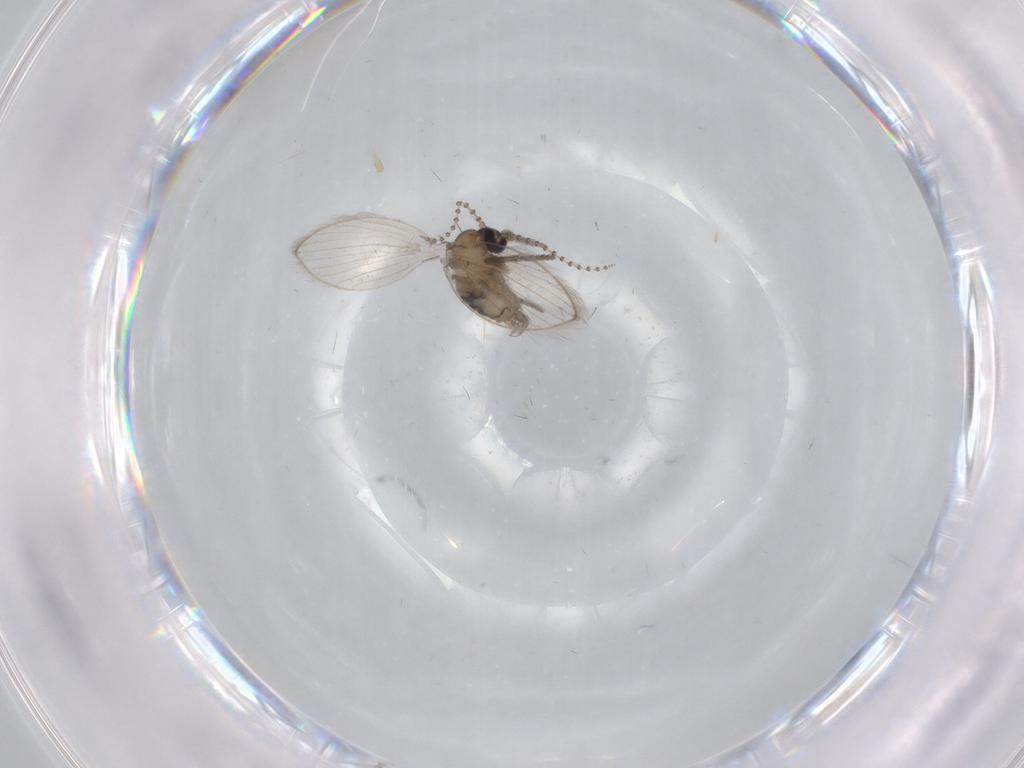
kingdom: Animalia
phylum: Arthropoda
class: Insecta
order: Diptera
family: Psychodidae
